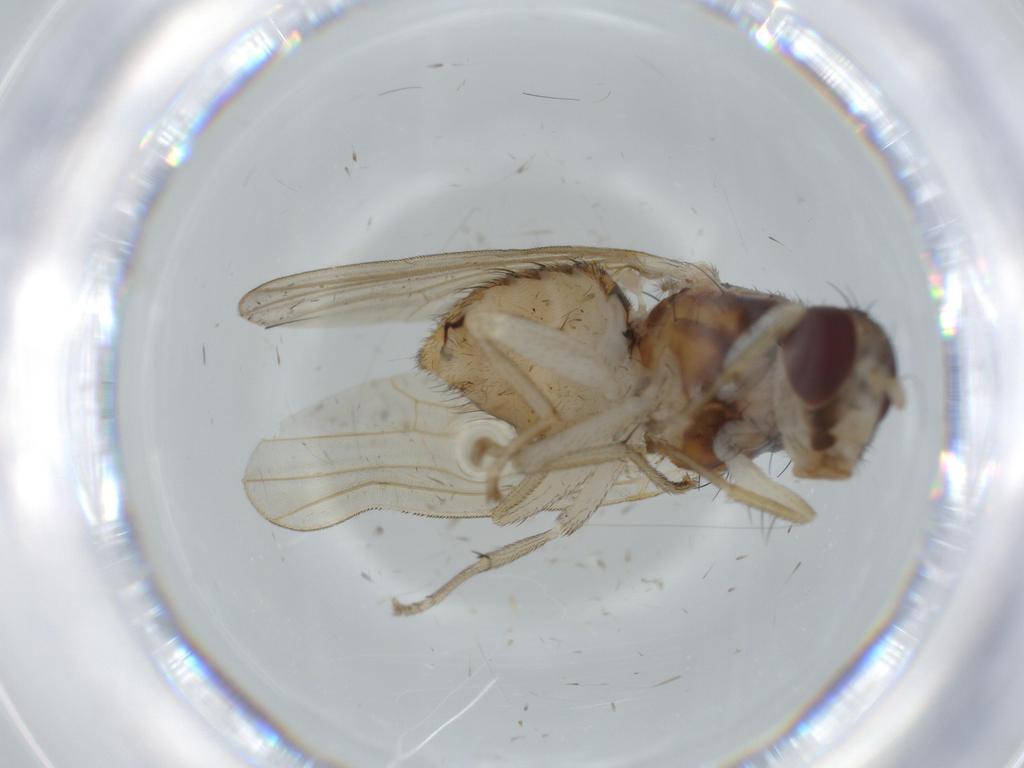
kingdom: Animalia
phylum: Arthropoda
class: Insecta
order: Diptera
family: Lauxaniidae
